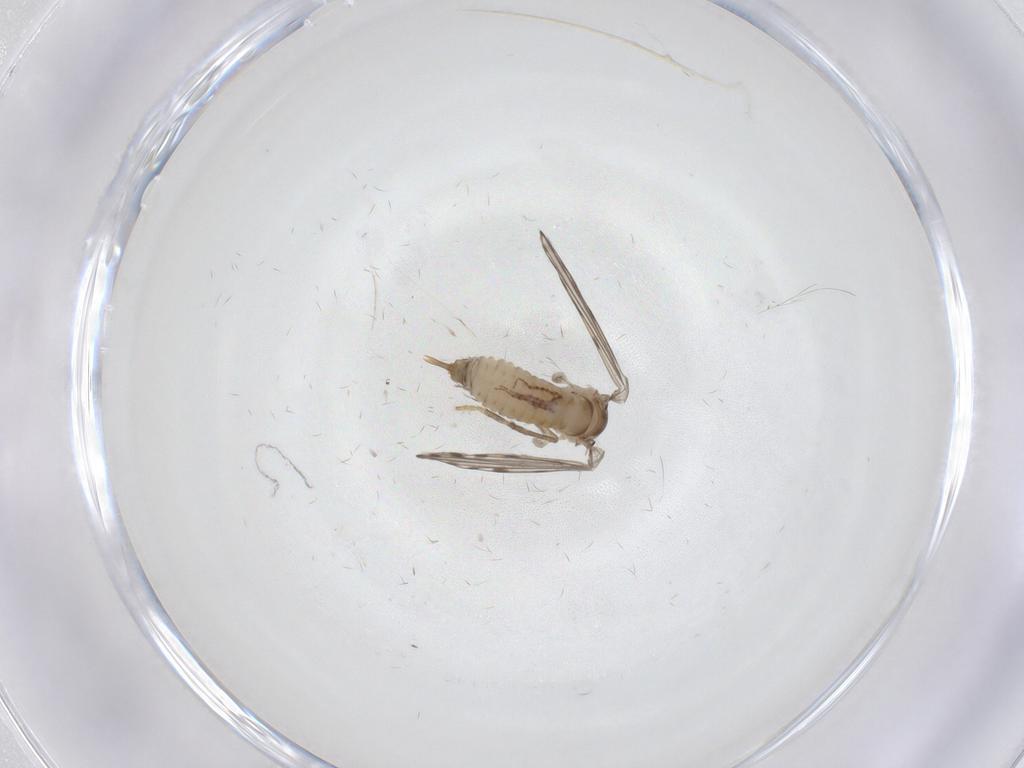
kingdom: Animalia
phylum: Arthropoda
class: Insecta
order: Diptera
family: Psychodidae
